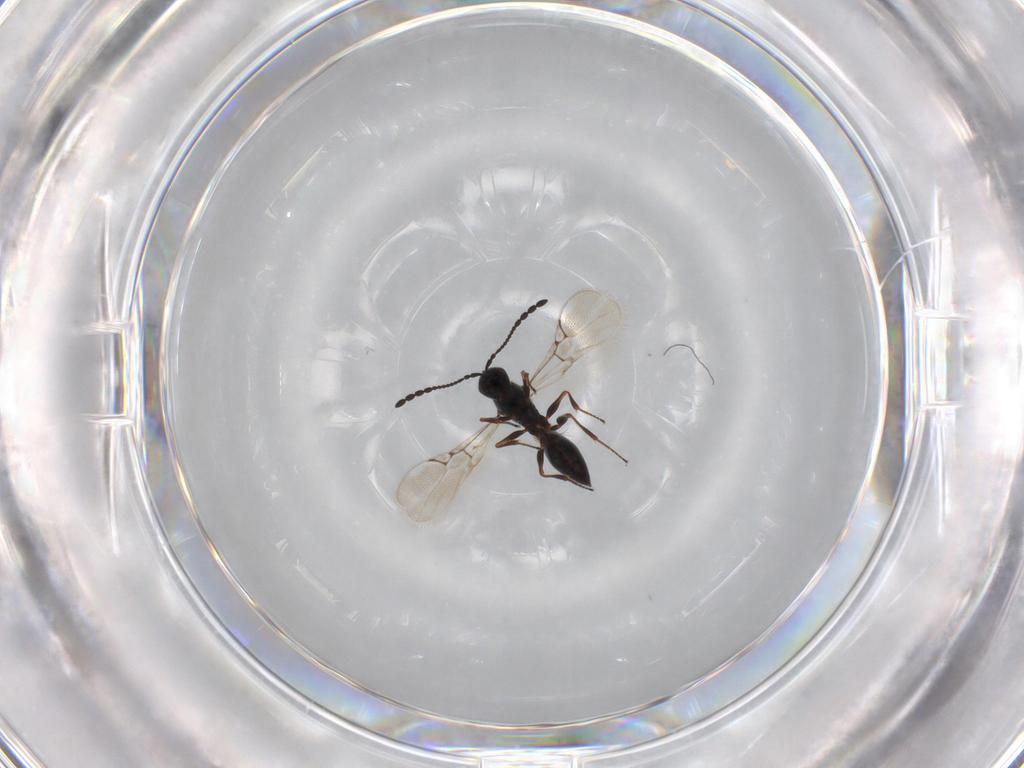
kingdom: Animalia
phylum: Arthropoda
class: Insecta
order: Hymenoptera
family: Figitidae
